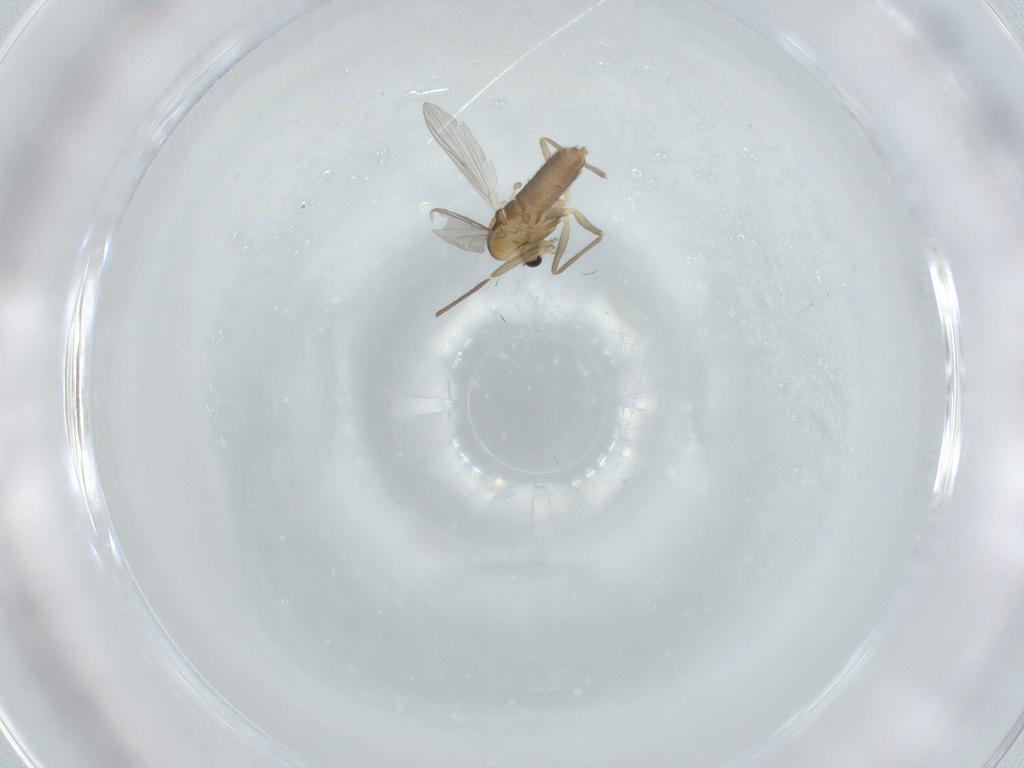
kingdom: Animalia
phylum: Arthropoda
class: Insecta
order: Diptera
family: Chironomidae
